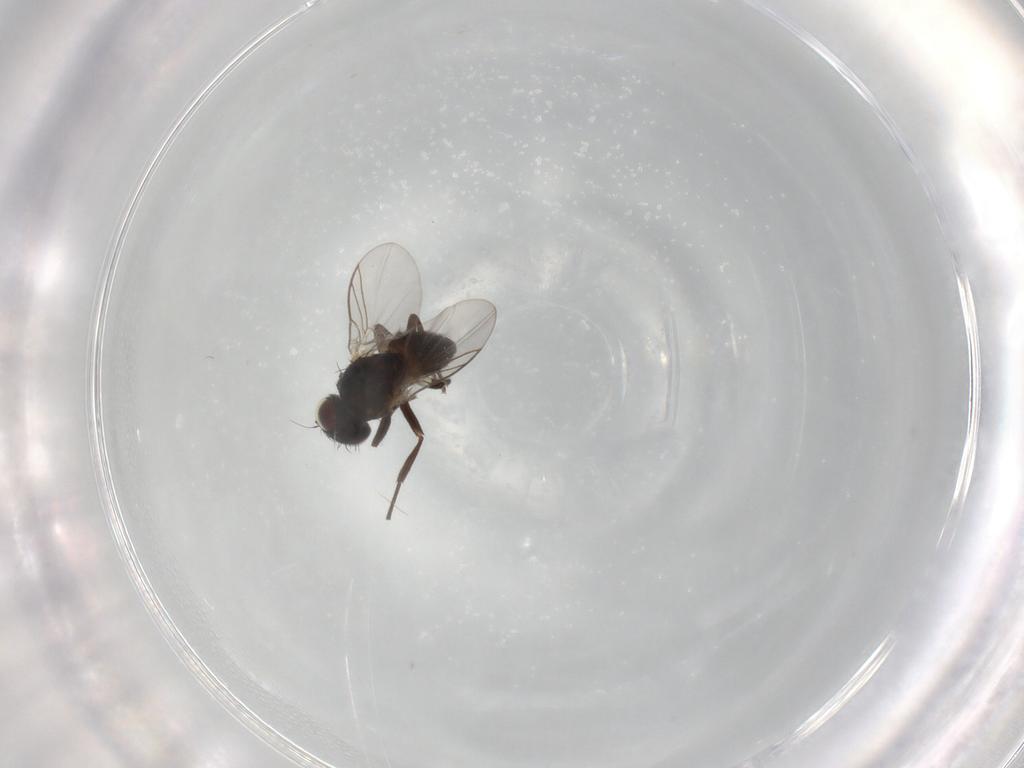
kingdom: Animalia
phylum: Arthropoda
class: Insecta
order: Diptera
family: Agromyzidae
